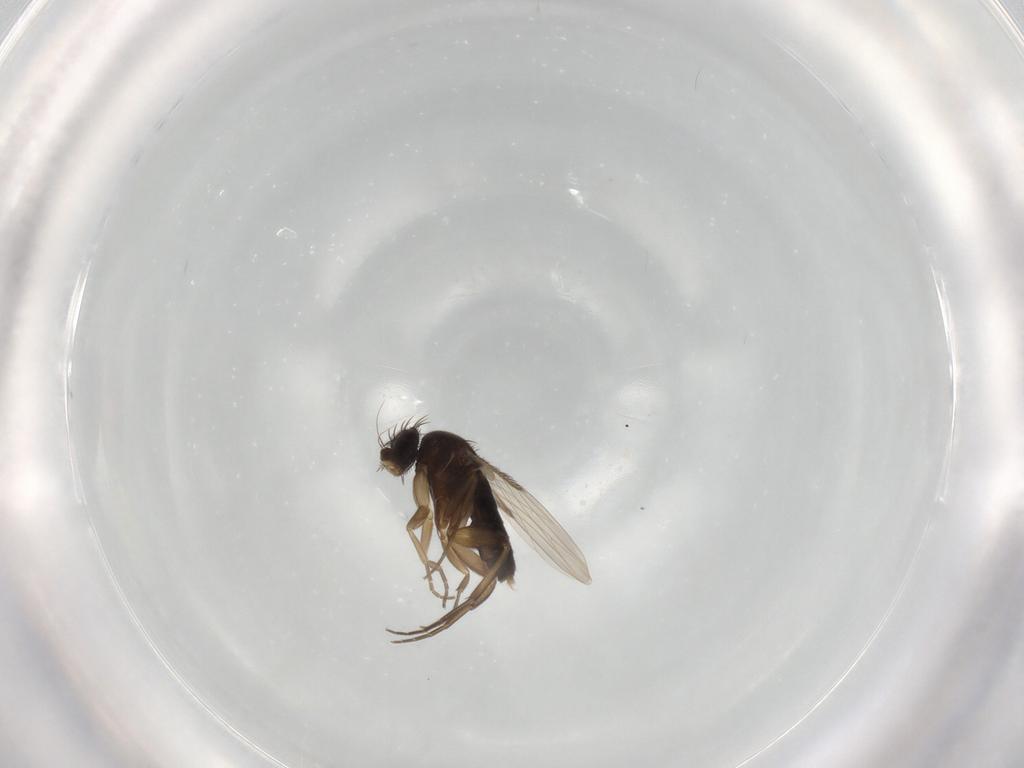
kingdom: Animalia
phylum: Arthropoda
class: Insecta
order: Diptera
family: Phoridae
